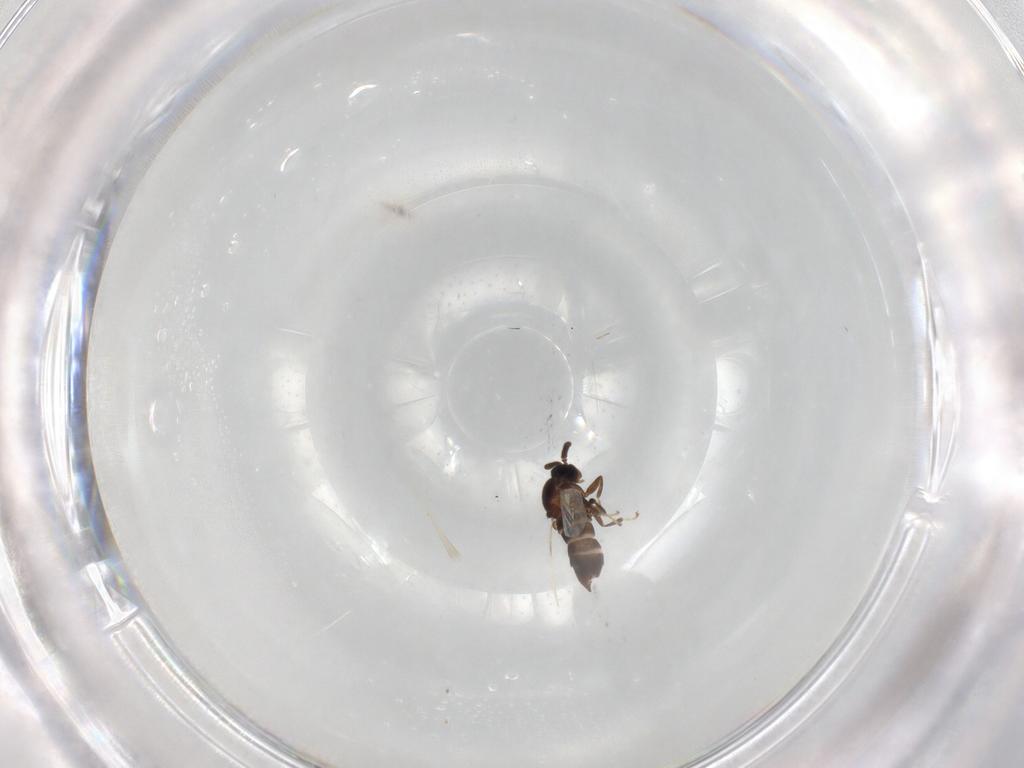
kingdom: Animalia
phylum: Arthropoda
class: Insecta
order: Diptera
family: Scatopsidae
